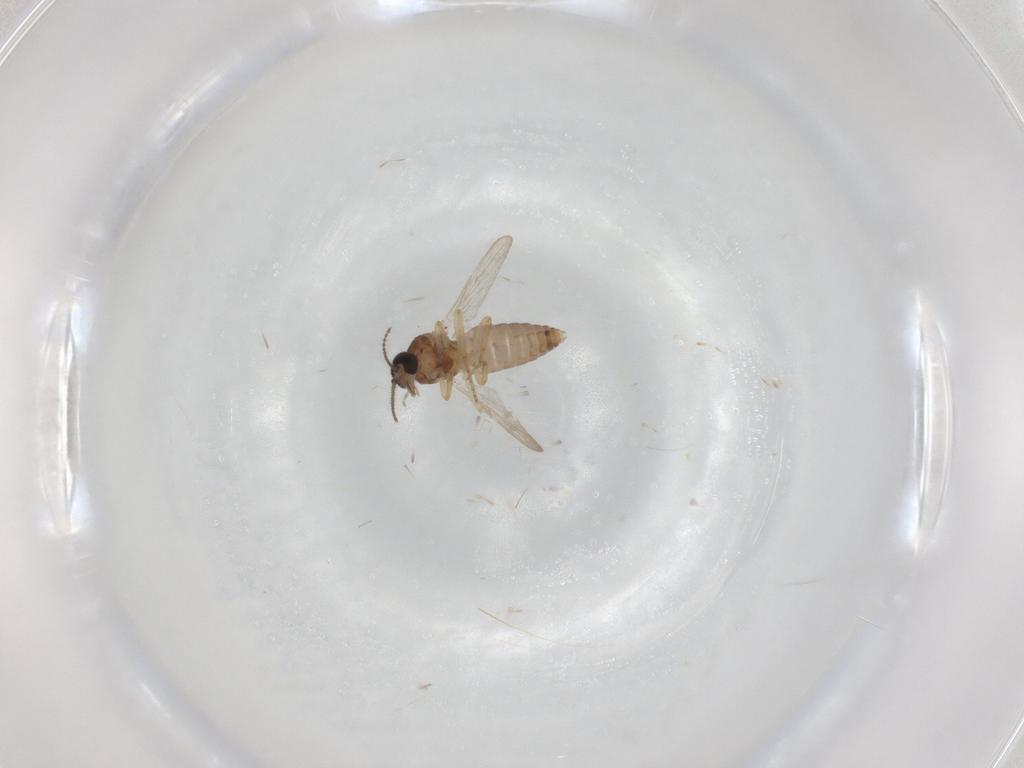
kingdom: Animalia
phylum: Arthropoda
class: Insecta
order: Diptera
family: Ceratopogonidae
